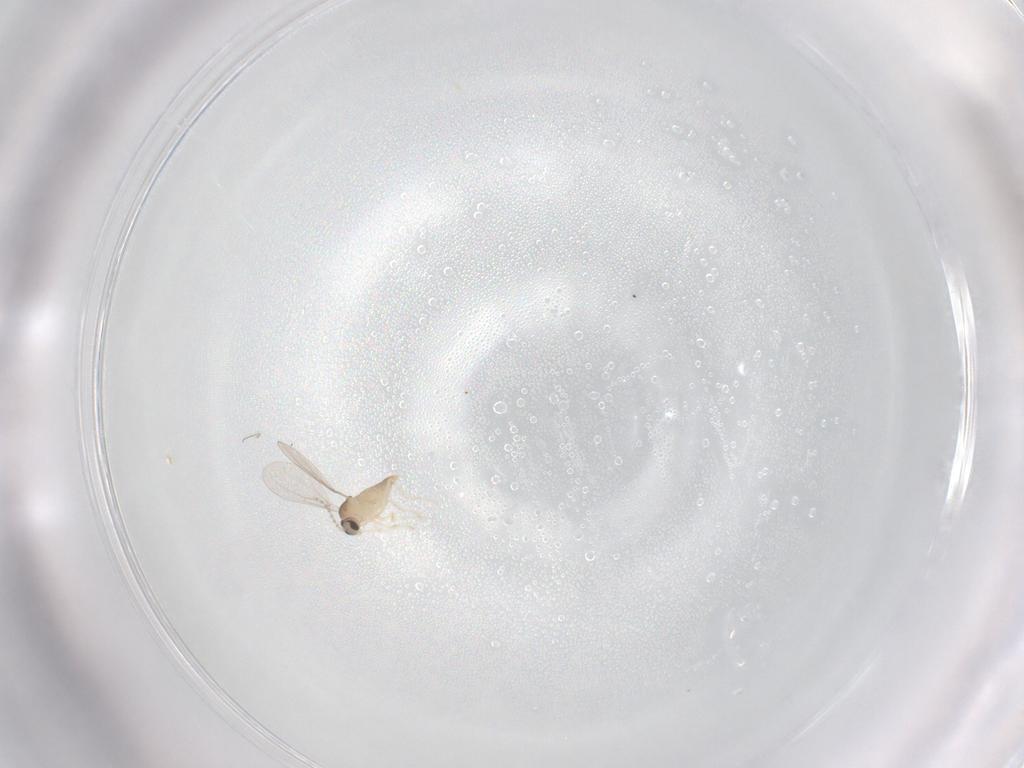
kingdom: Animalia
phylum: Arthropoda
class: Insecta
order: Diptera
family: Cecidomyiidae
